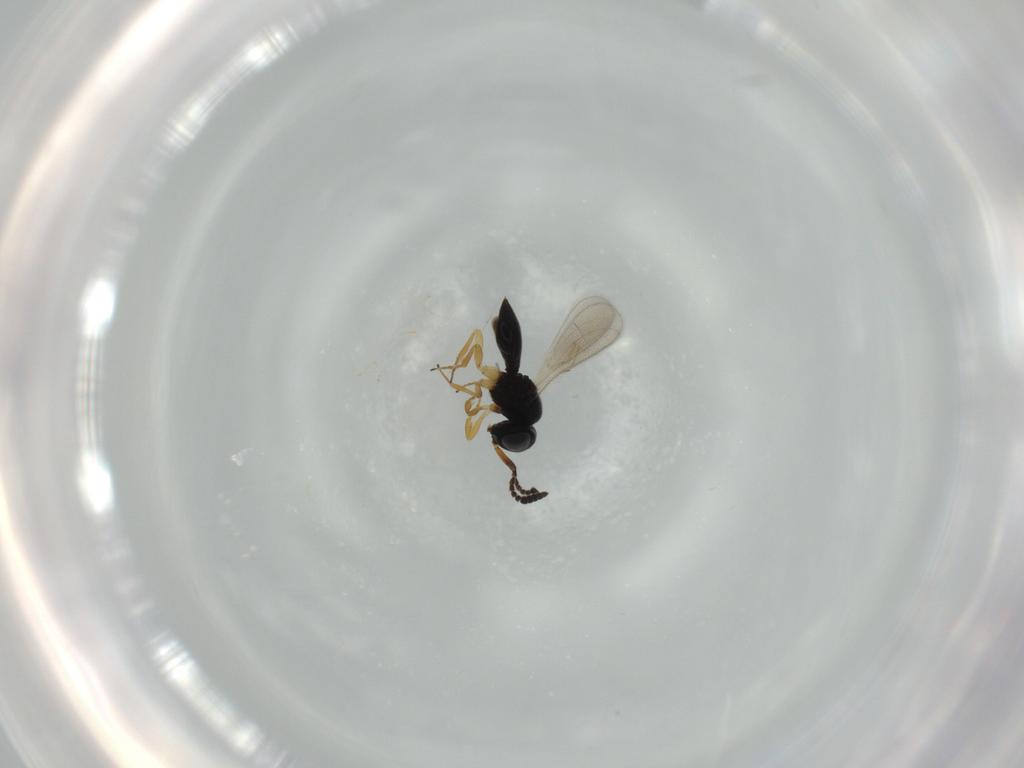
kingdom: Animalia
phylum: Arthropoda
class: Insecta
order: Hymenoptera
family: Scelionidae
